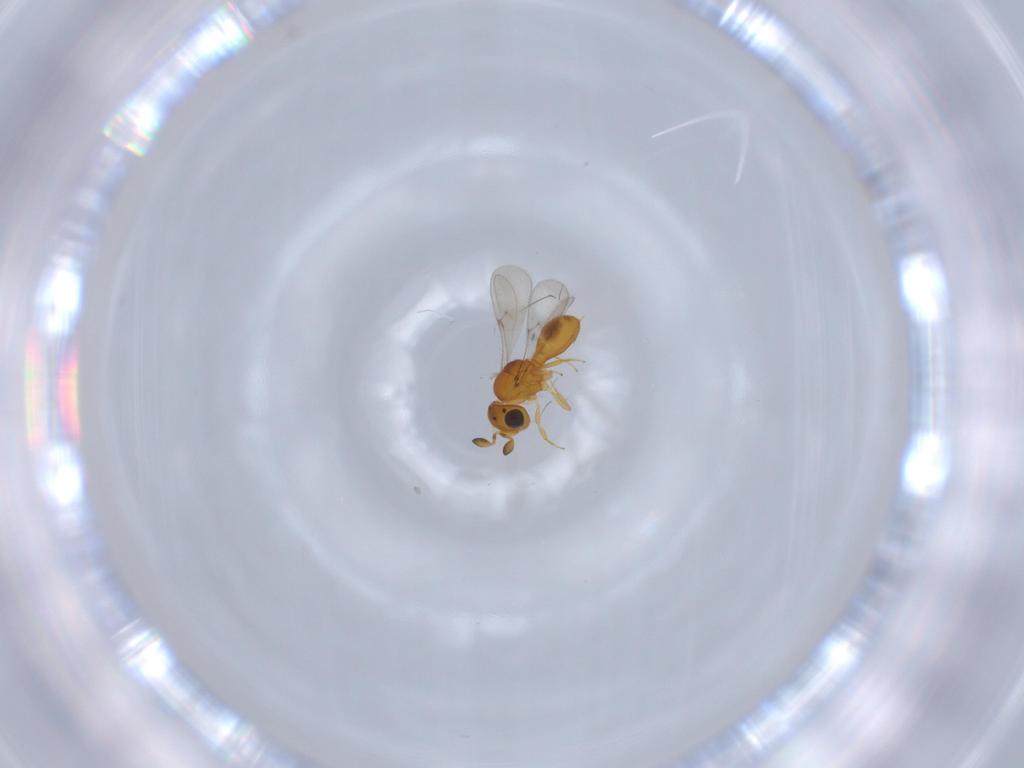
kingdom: Animalia
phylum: Arthropoda
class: Insecta
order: Hymenoptera
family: Scelionidae
